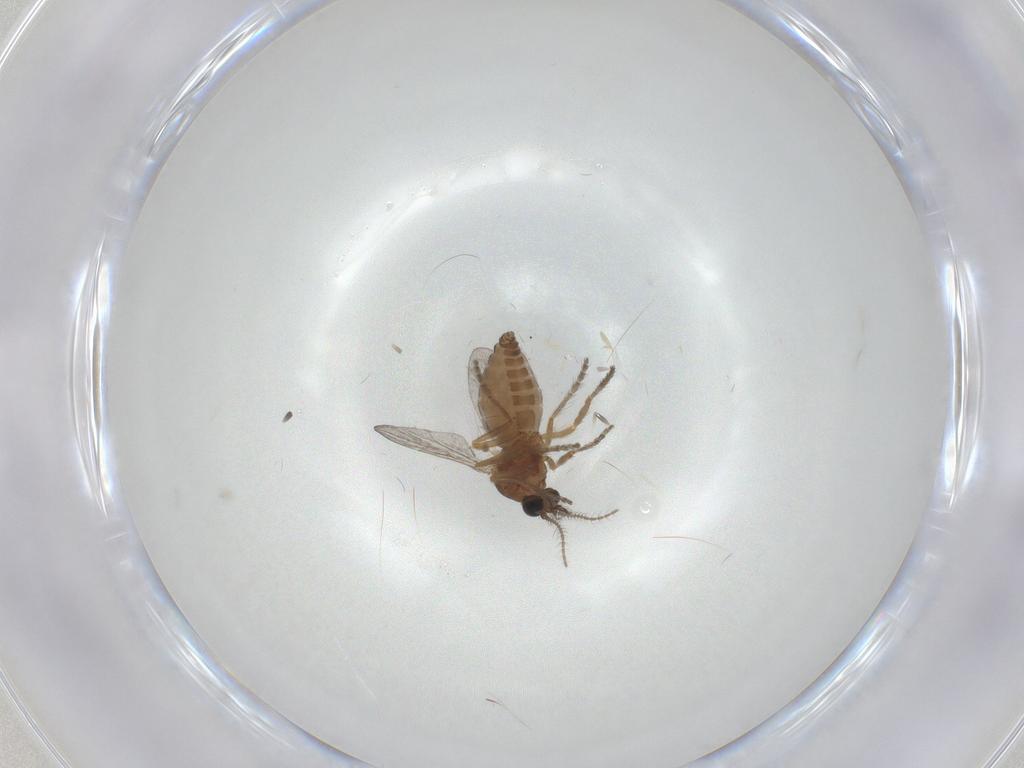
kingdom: Animalia
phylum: Arthropoda
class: Insecta
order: Diptera
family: Ceratopogonidae
